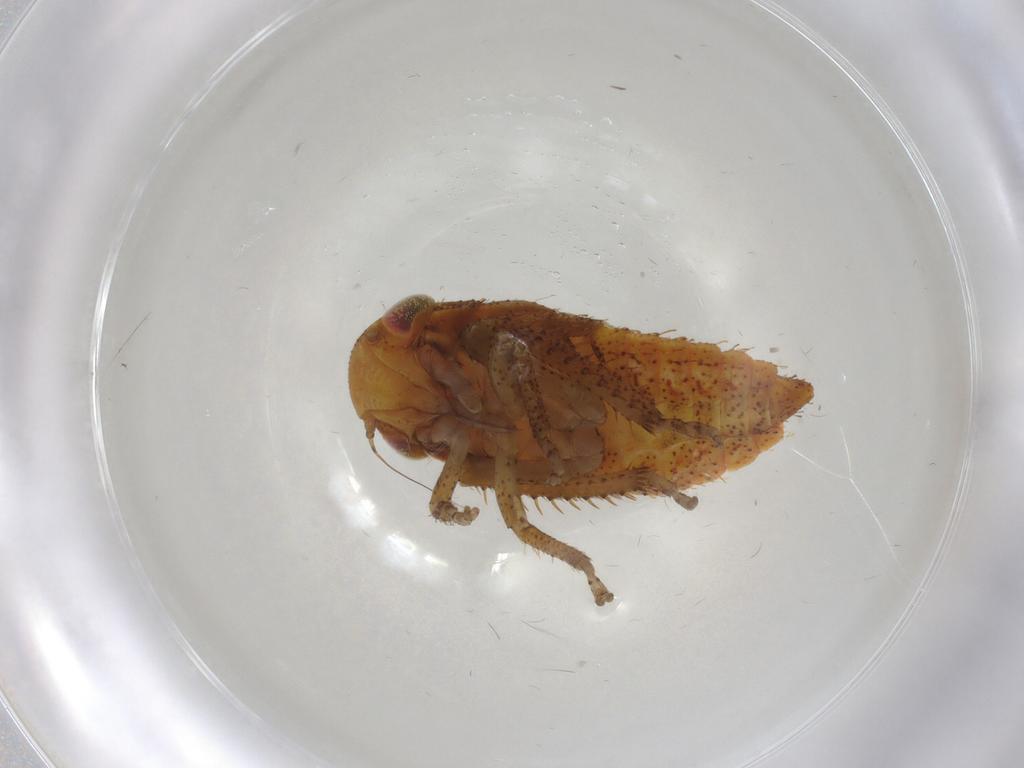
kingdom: Animalia
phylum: Arthropoda
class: Insecta
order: Hemiptera
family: Cicadellidae
